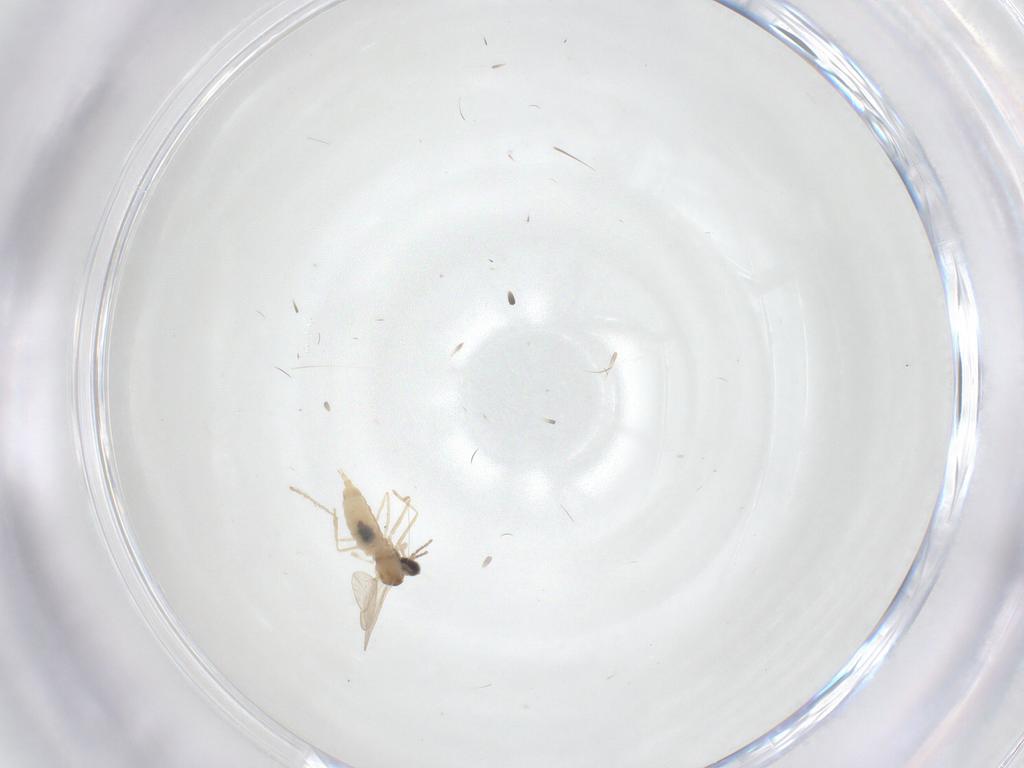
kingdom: Animalia
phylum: Arthropoda
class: Insecta
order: Diptera
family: Cecidomyiidae
